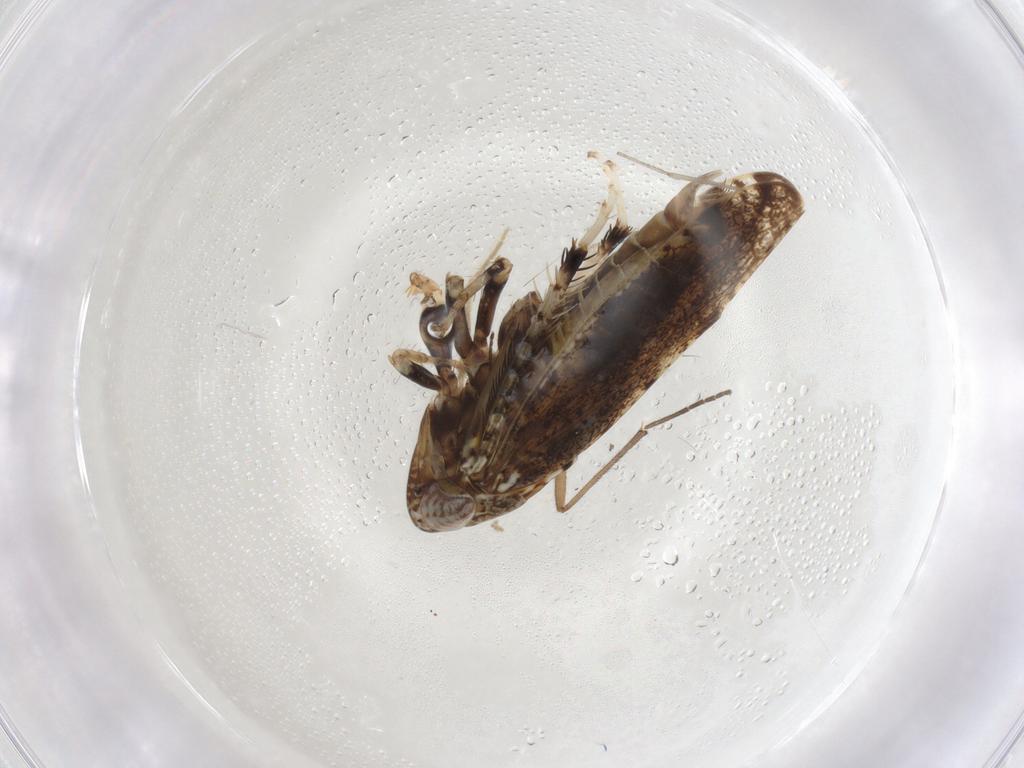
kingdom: Animalia
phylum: Arthropoda
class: Insecta
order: Hemiptera
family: Cicadellidae
